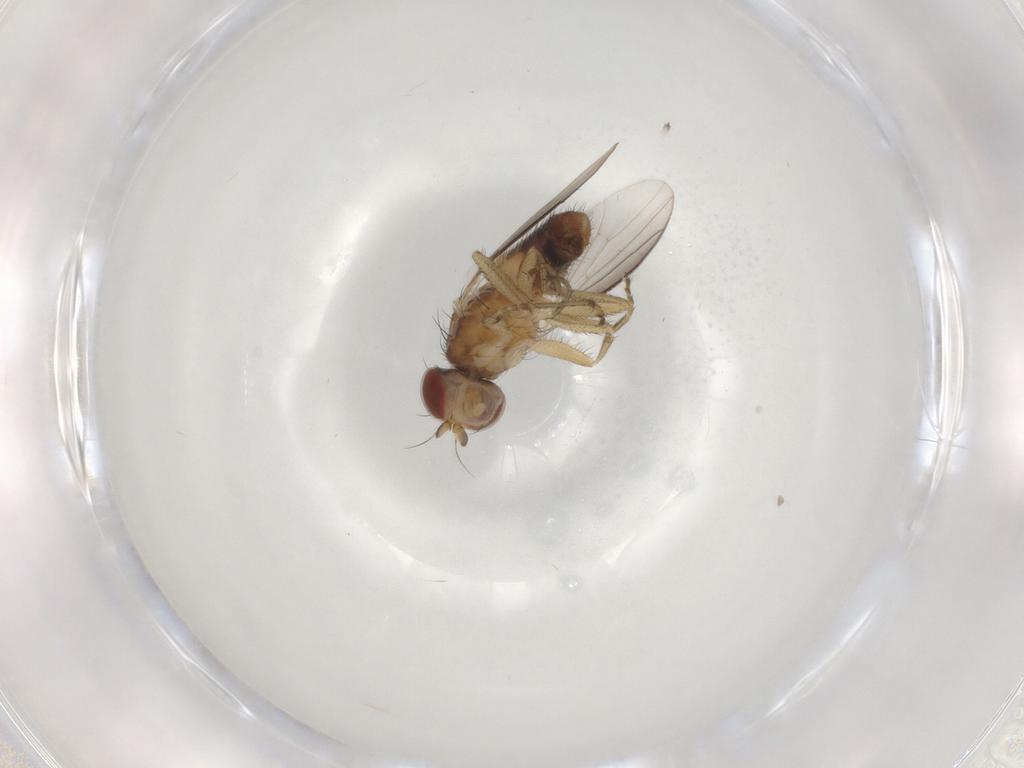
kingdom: Animalia
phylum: Arthropoda
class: Insecta
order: Diptera
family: Heleomyzidae
